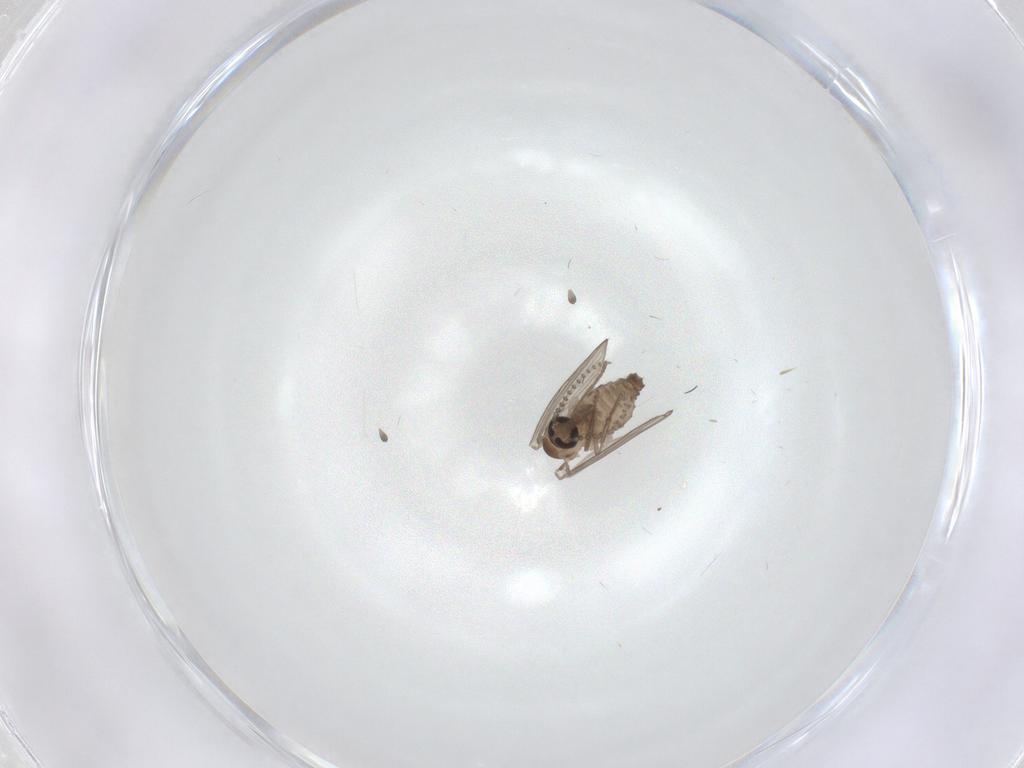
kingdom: Animalia
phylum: Arthropoda
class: Insecta
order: Diptera
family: Psychodidae
